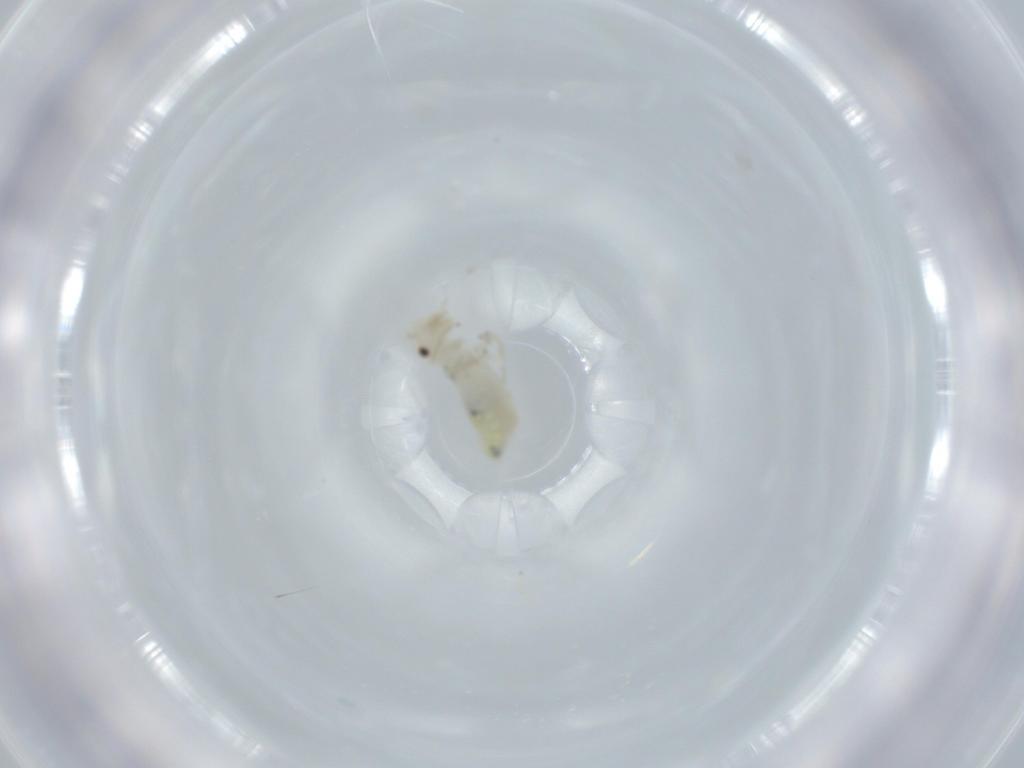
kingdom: Animalia
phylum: Arthropoda
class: Insecta
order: Psocodea
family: Caeciliusidae
